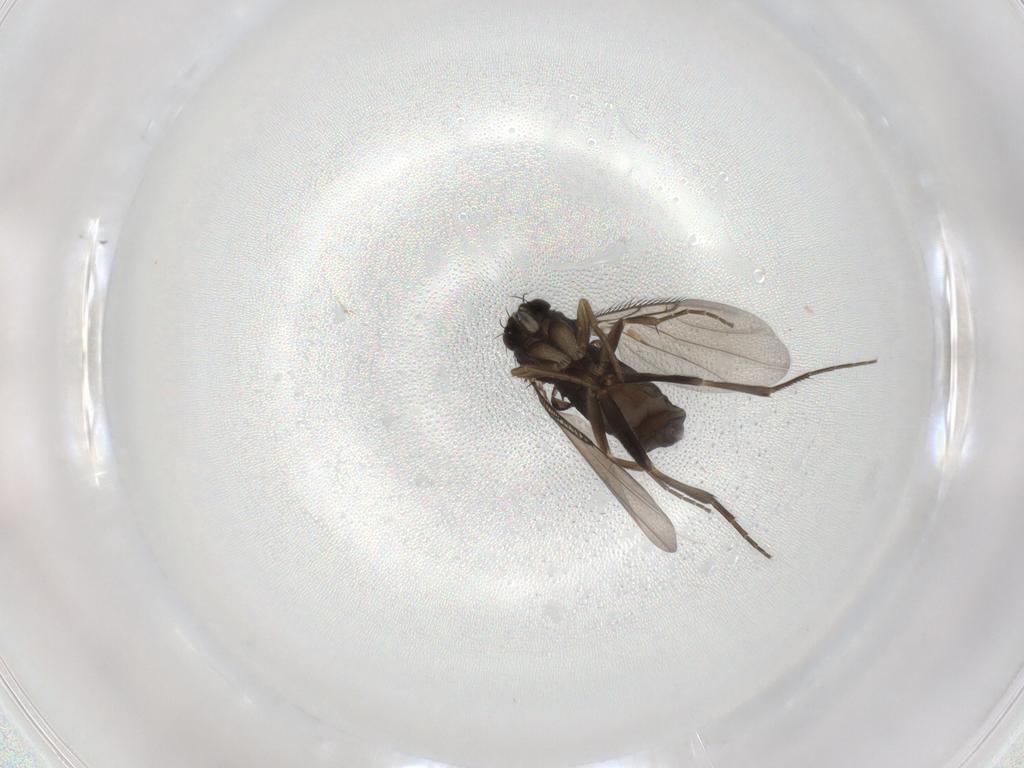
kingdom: Animalia
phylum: Arthropoda
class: Insecta
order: Diptera
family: Phoridae
